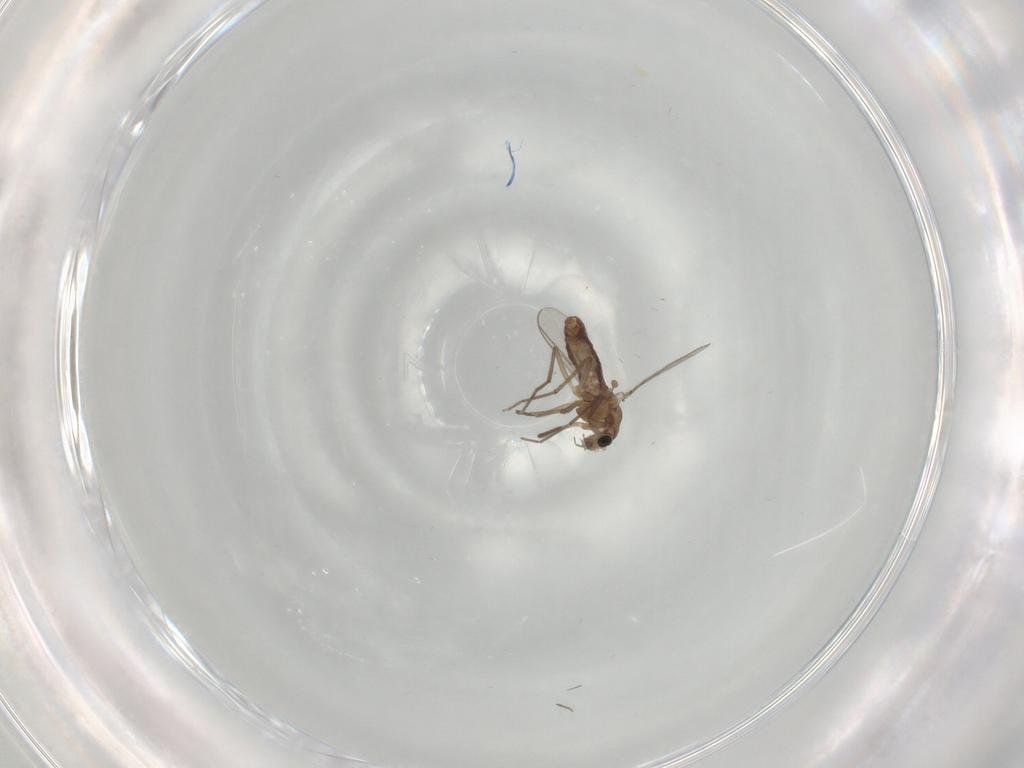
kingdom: Animalia
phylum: Arthropoda
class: Insecta
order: Diptera
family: Chironomidae
